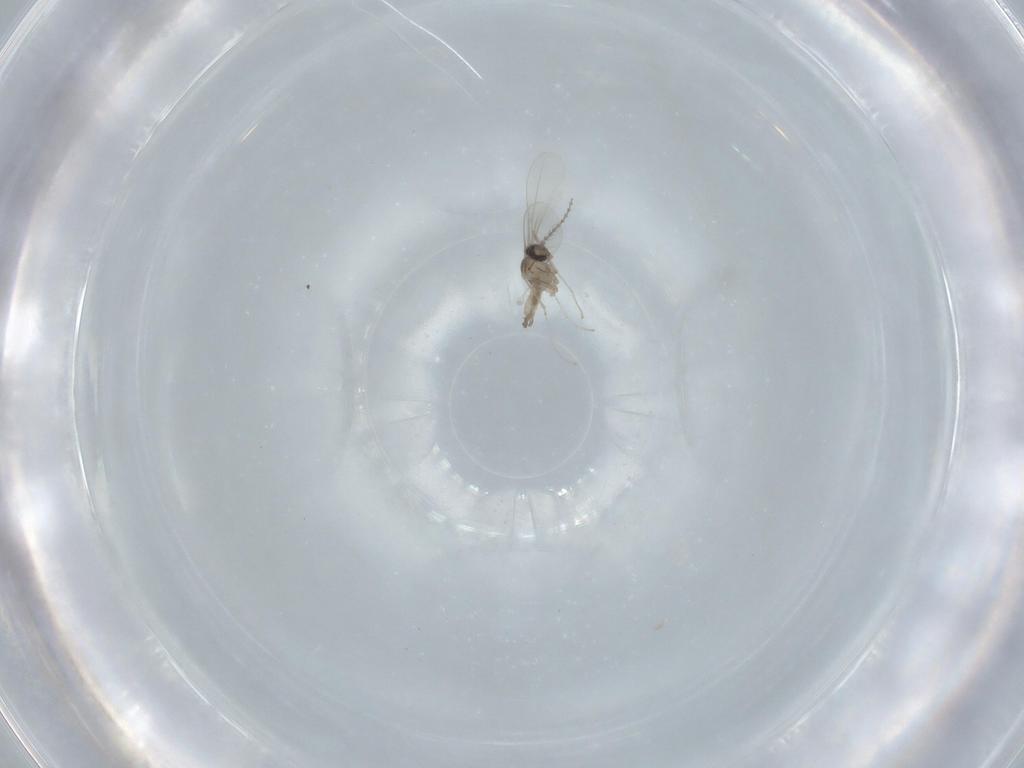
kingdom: Animalia
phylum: Arthropoda
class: Insecta
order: Diptera
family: Cecidomyiidae
